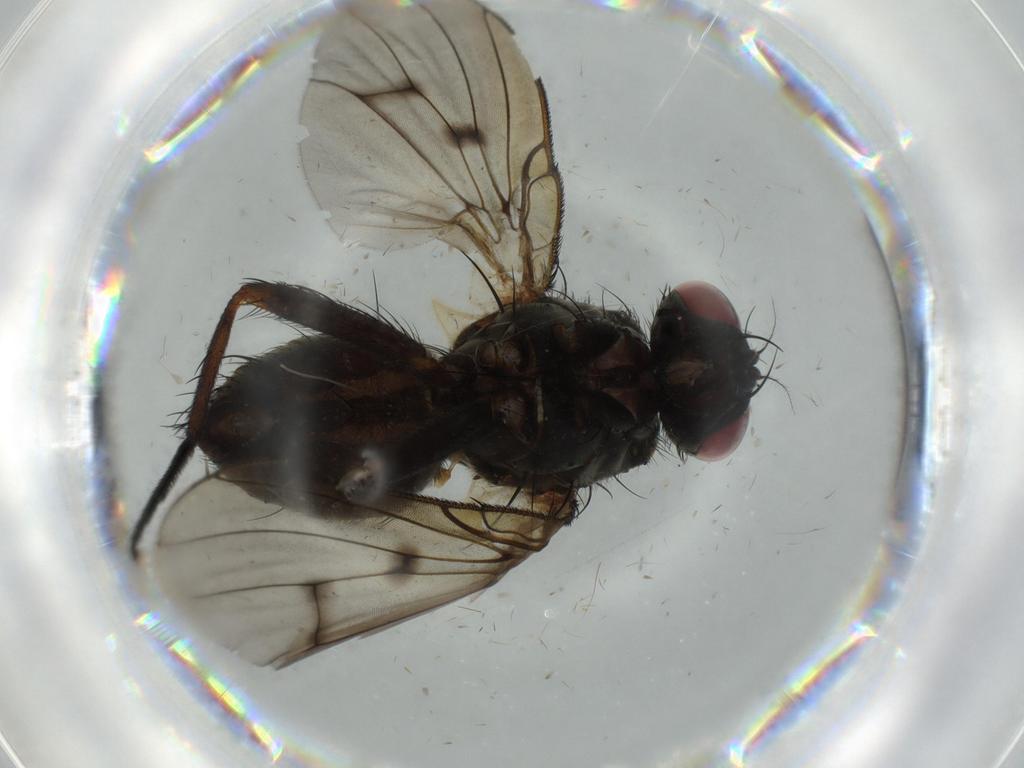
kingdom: Animalia
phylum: Arthropoda
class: Insecta
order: Diptera
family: Muscidae
